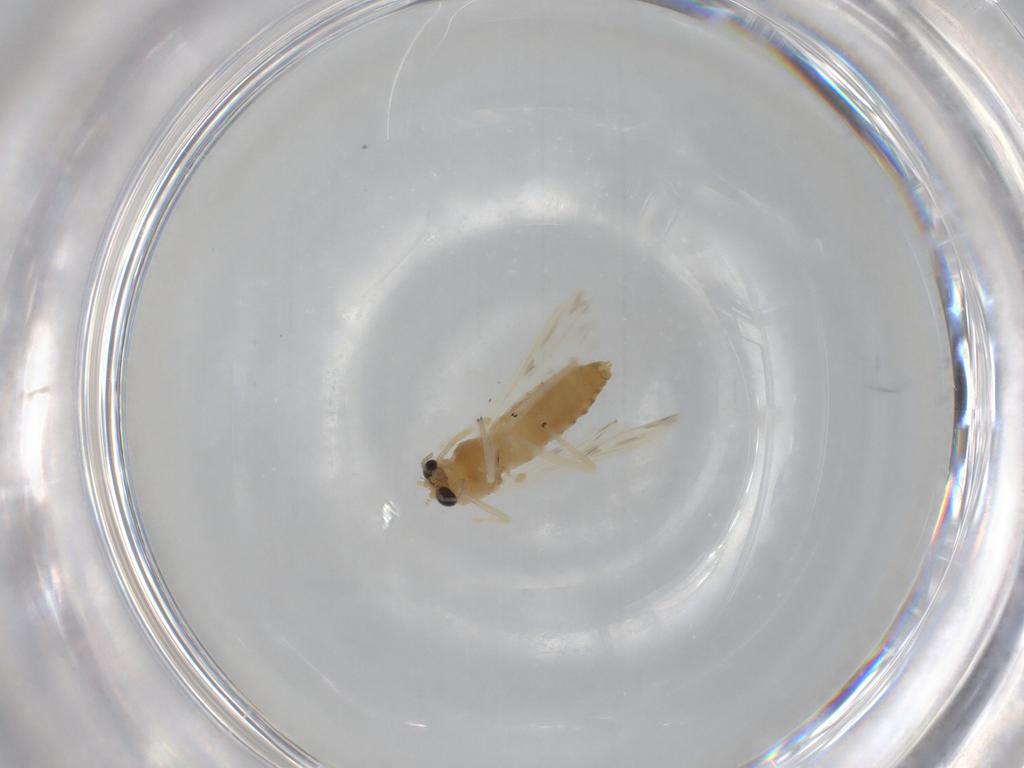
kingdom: Animalia
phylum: Arthropoda
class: Insecta
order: Diptera
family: Chironomidae
